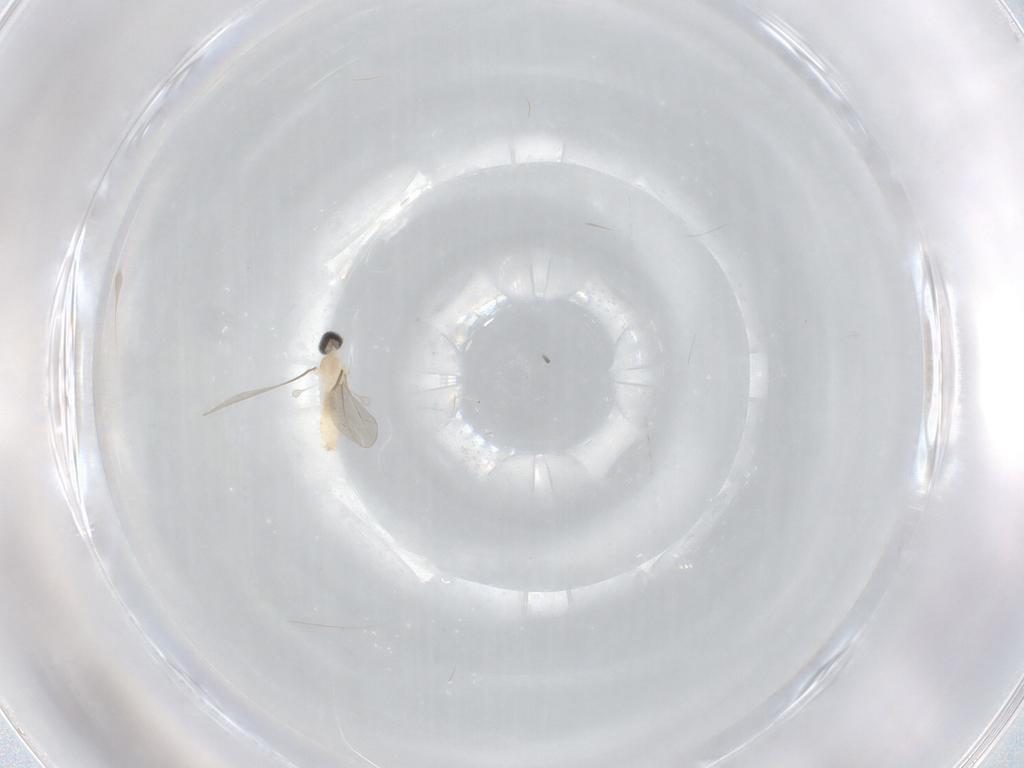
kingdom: Animalia
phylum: Arthropoda
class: Insecta
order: Diptera
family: Cecidomyiidae
